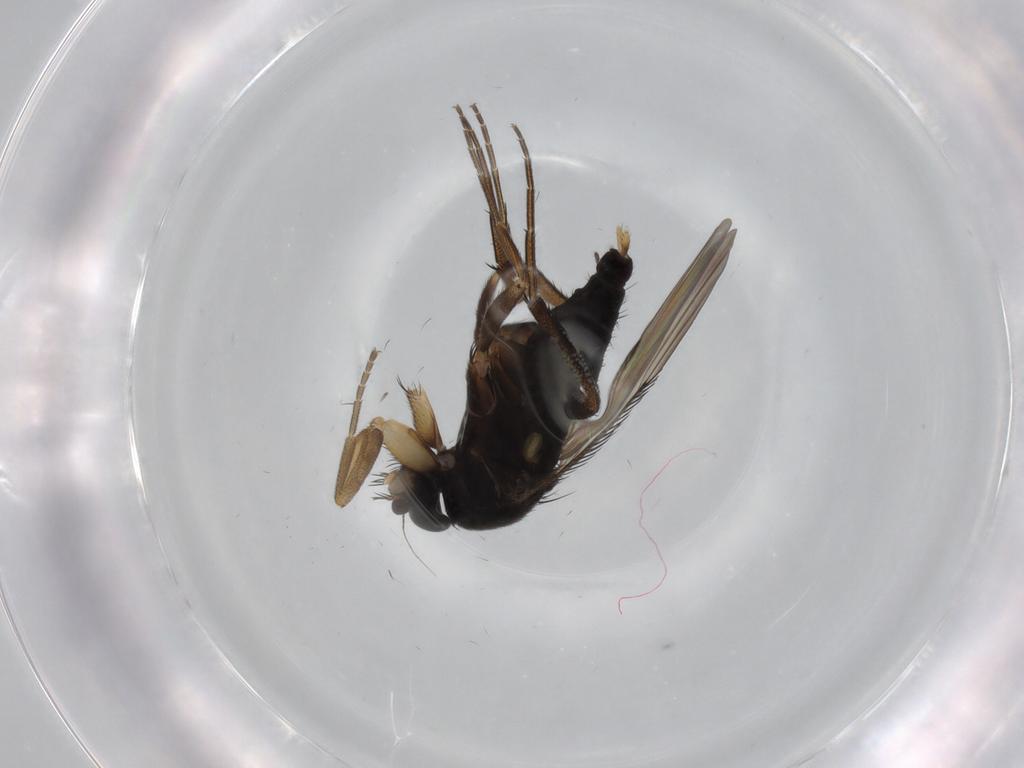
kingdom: Animalia
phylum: Arthropoda
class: Insecta
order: Diptera
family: Phoridae
